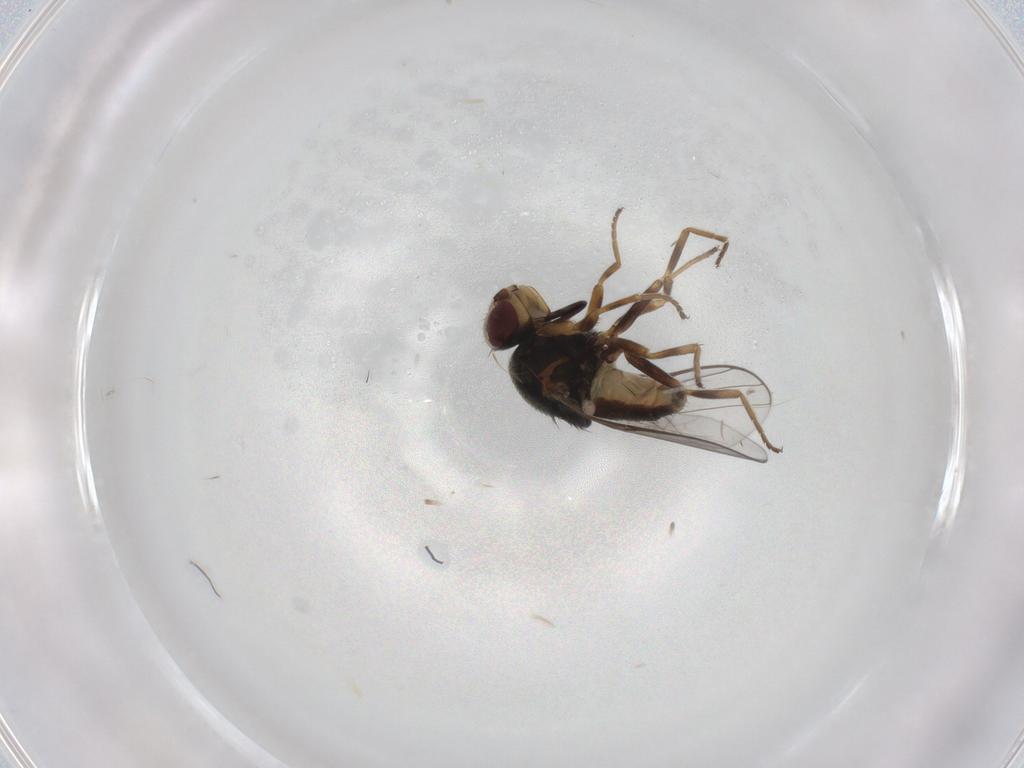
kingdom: Animalia
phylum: Arthropoda
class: Insecta
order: Diptera
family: Chloropidae
